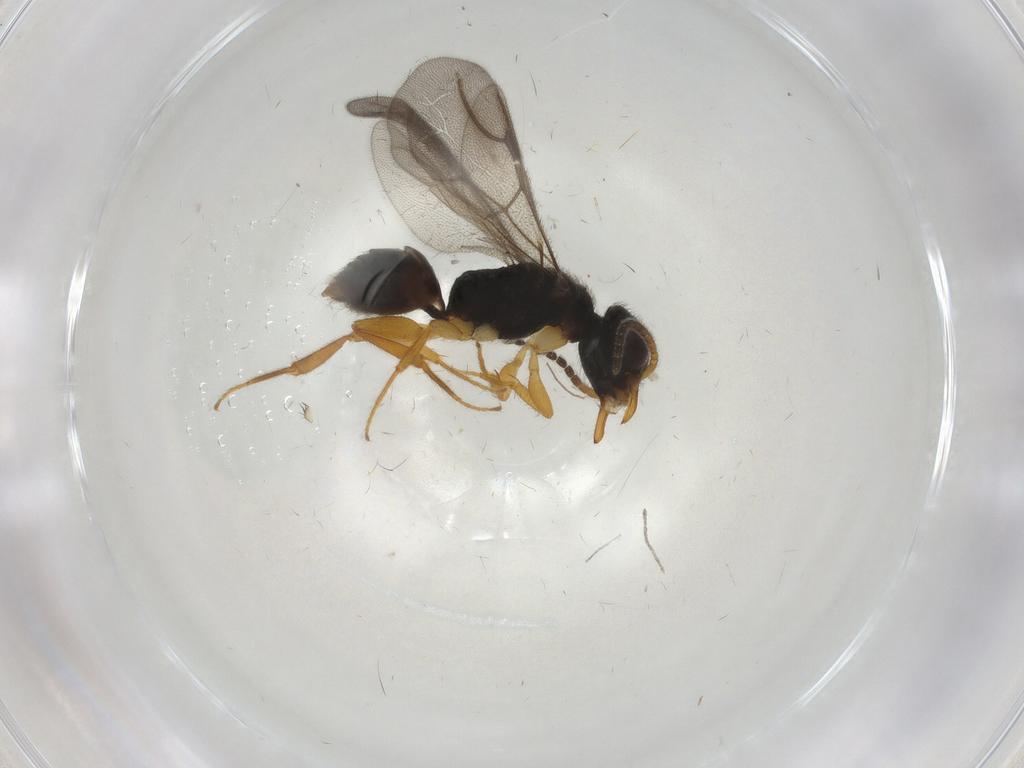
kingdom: Animalia
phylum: Arthropoda
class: Insecta
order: Hymenoptera
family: Bethylidae
